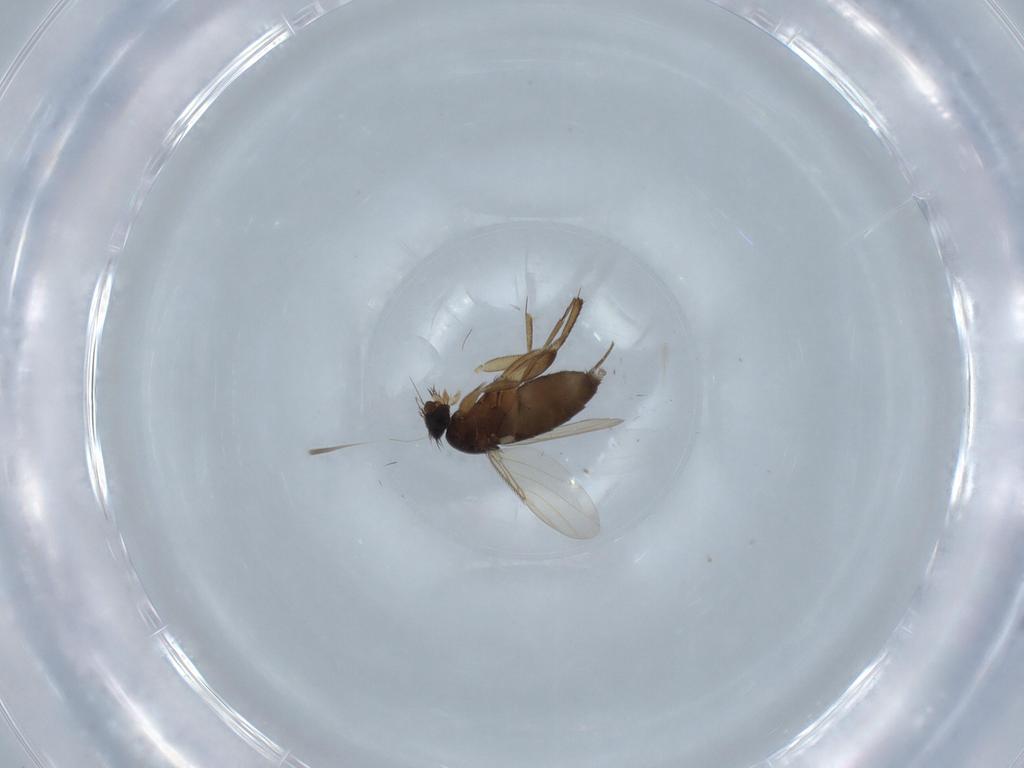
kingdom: Animalia
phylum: Arthropoda
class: Insecta
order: Diptera
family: Phoridae
